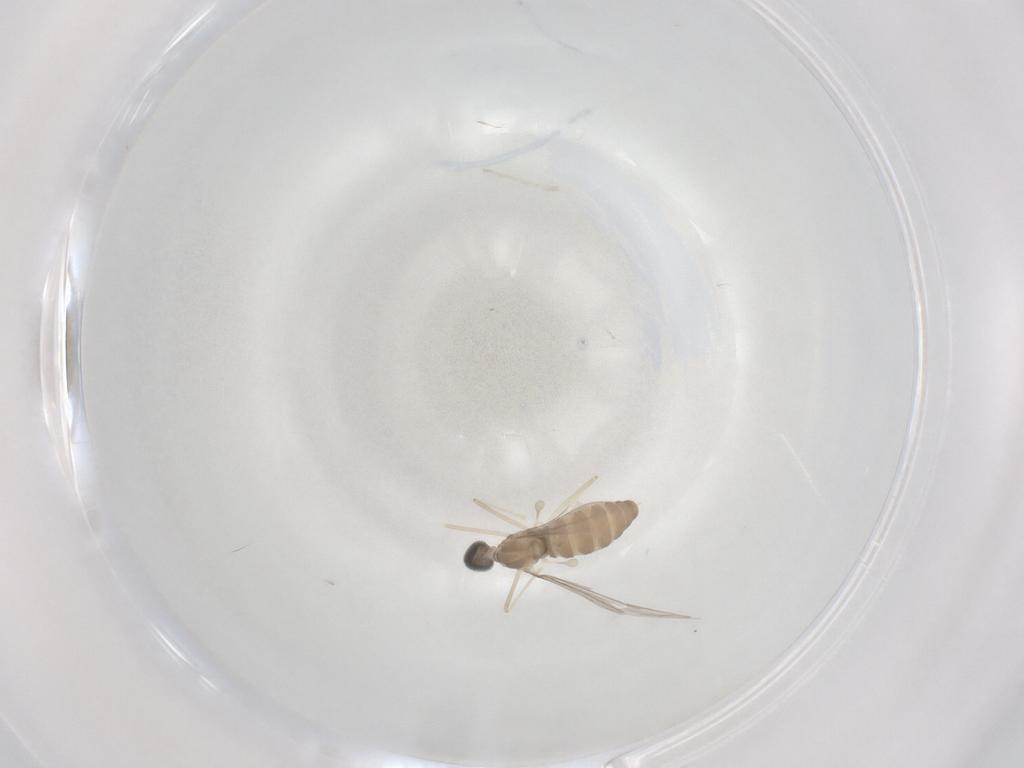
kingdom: Animalia
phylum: Arthropoda
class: Insecta
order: Diptera
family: Cecidomyiidae
